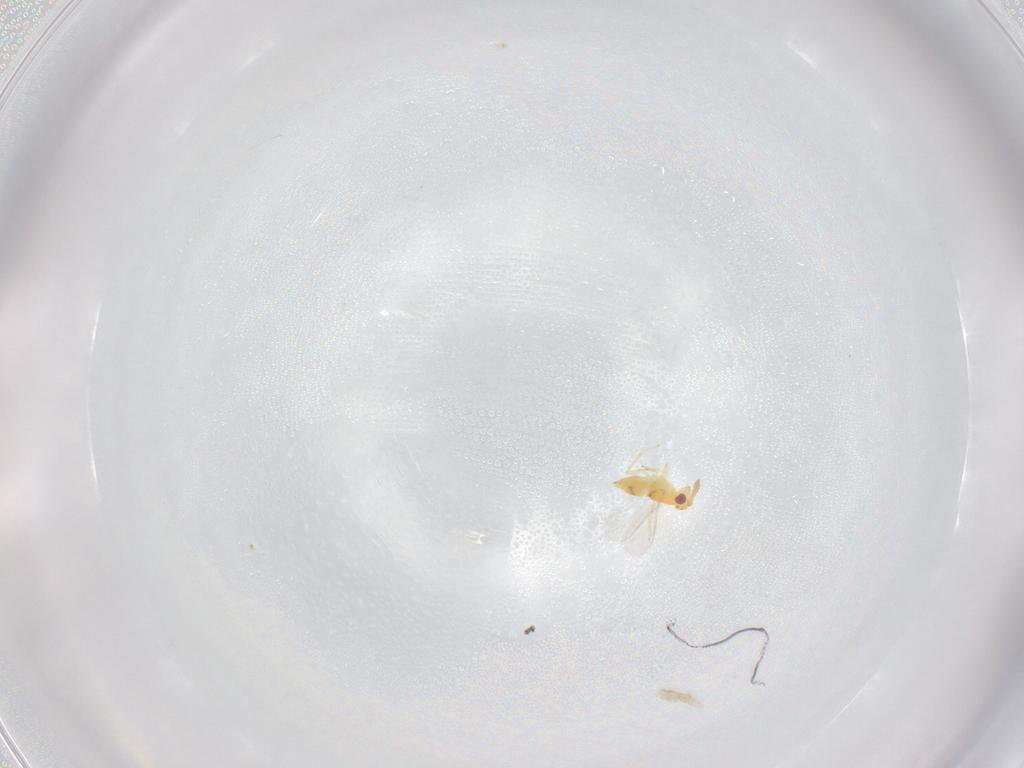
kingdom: Animalia
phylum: Arthropoda
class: Insecta
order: Hymenoptera
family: Aphelinidae
